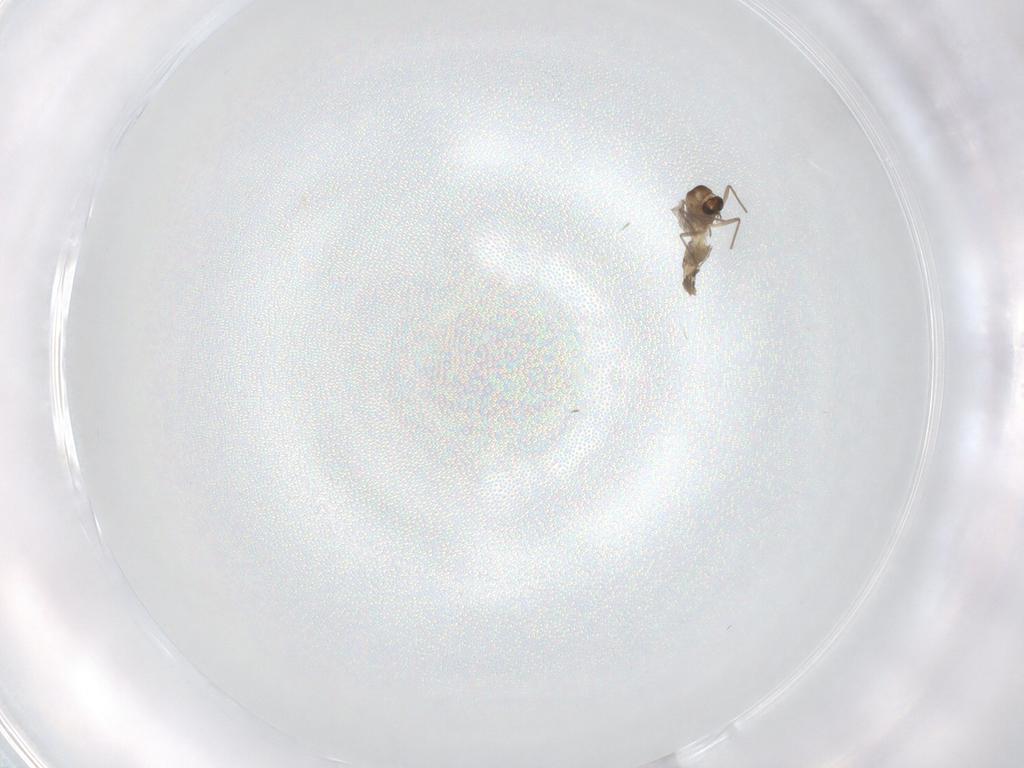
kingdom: Animalia
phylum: Arthropoda
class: Insecta
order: Diptera
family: Chironomidae
